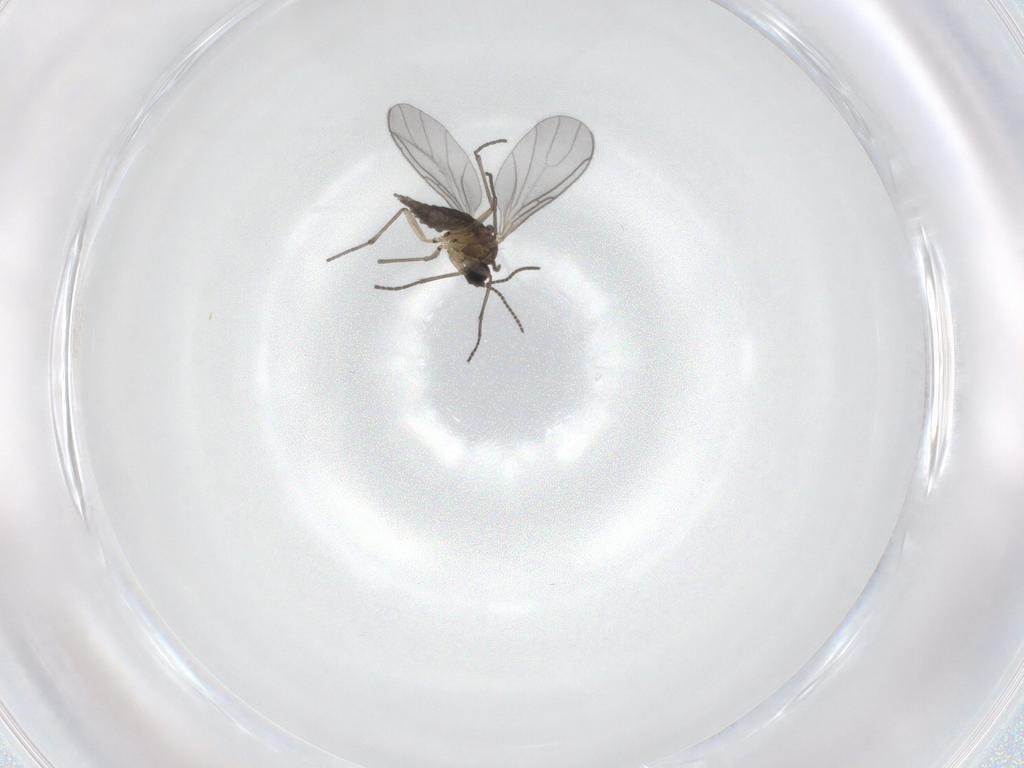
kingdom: Animalia
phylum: Arthropoda
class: Insecta
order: Diptera
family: Sciaridae
